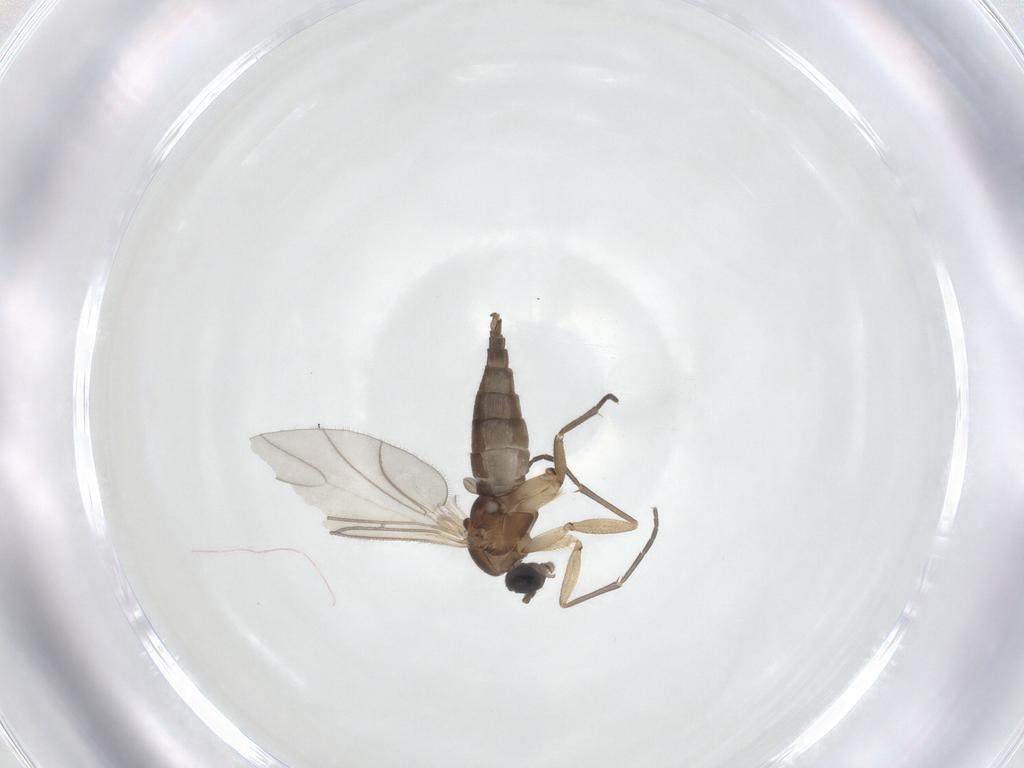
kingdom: Animalia
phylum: Arthropoda
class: Insecta
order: Diptera
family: Sciaridae
